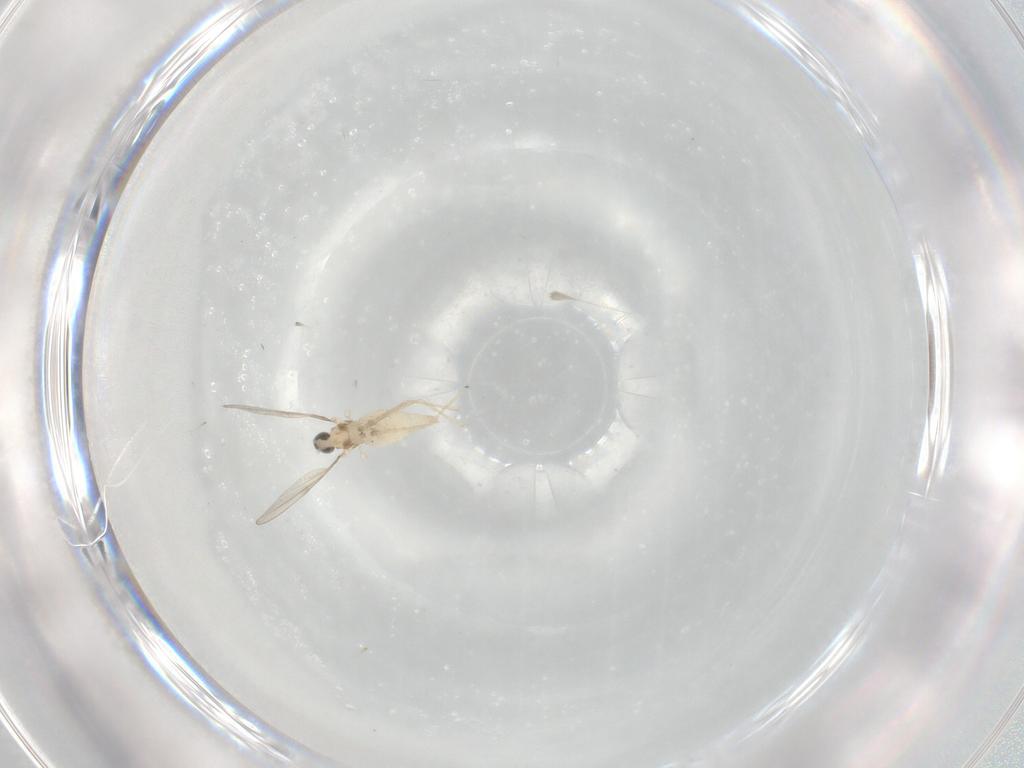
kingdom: Animalia
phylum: Arthropoda
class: Insecta
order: Diptera
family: Cecidomyiidae
